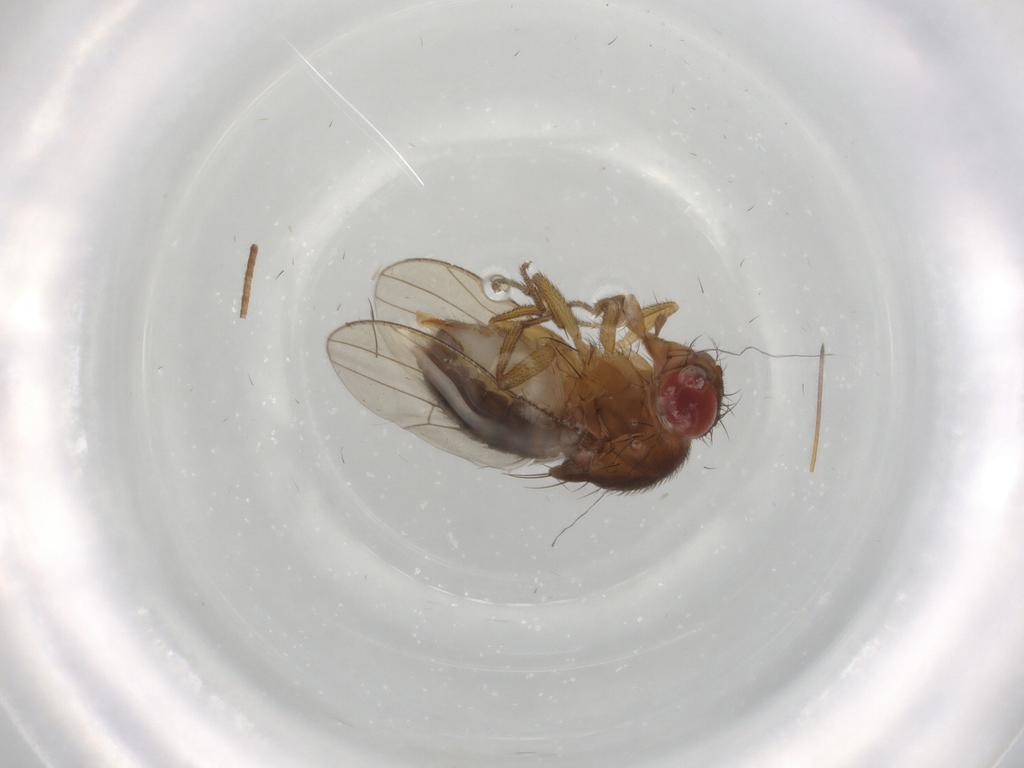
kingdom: Animalia
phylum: Arthropoda
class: Insecta
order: Diptera
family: Drosophilidae
